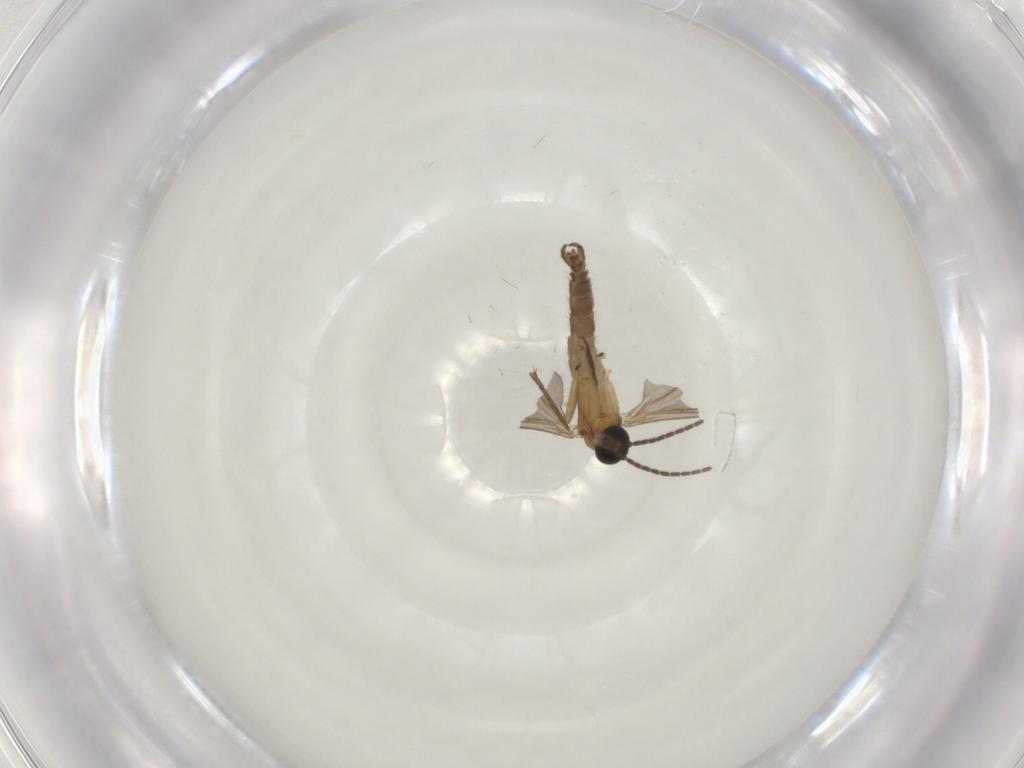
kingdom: Animalia
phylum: Arthropoda
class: Insecta
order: Diptera
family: Sciaridae
